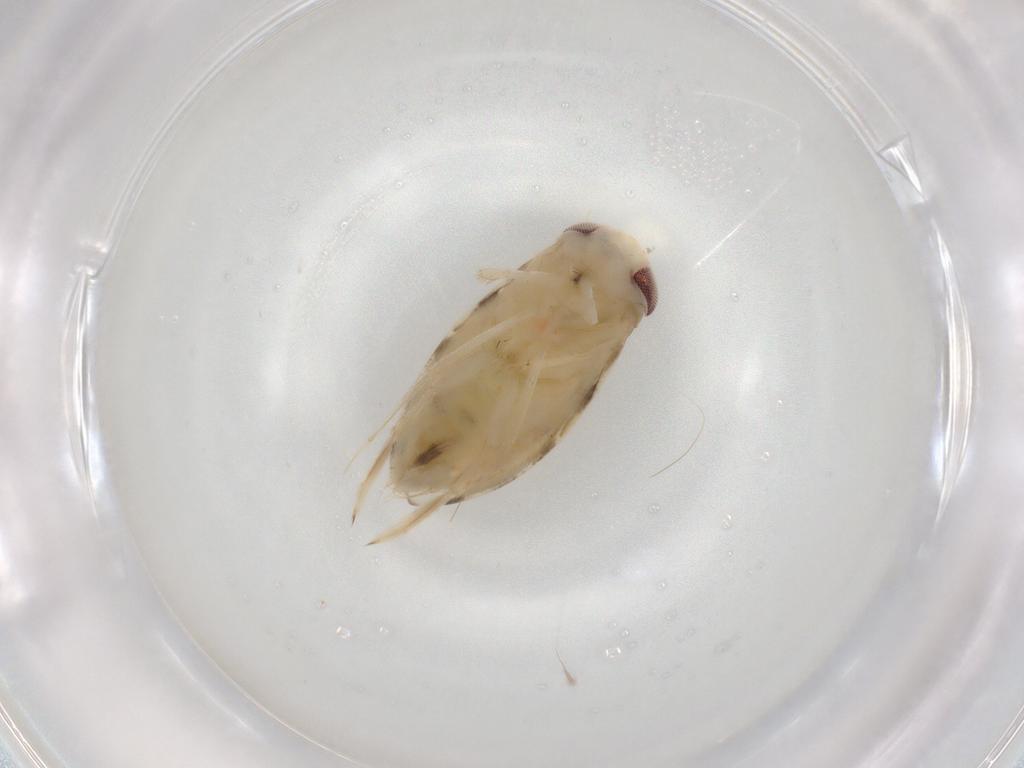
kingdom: Animalia
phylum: Arthropoda
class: Insecta
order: Hemiptera
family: Corixidae
